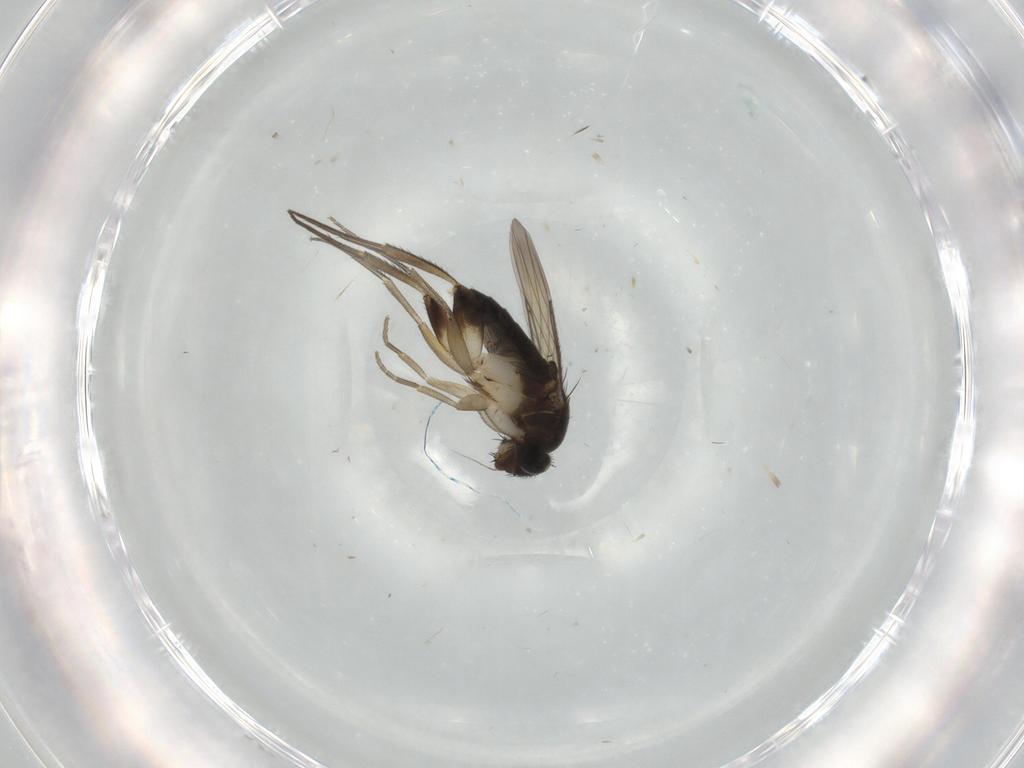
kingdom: Animalia
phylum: Arthropoda
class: Insecta
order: Diptera
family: Phoridae
